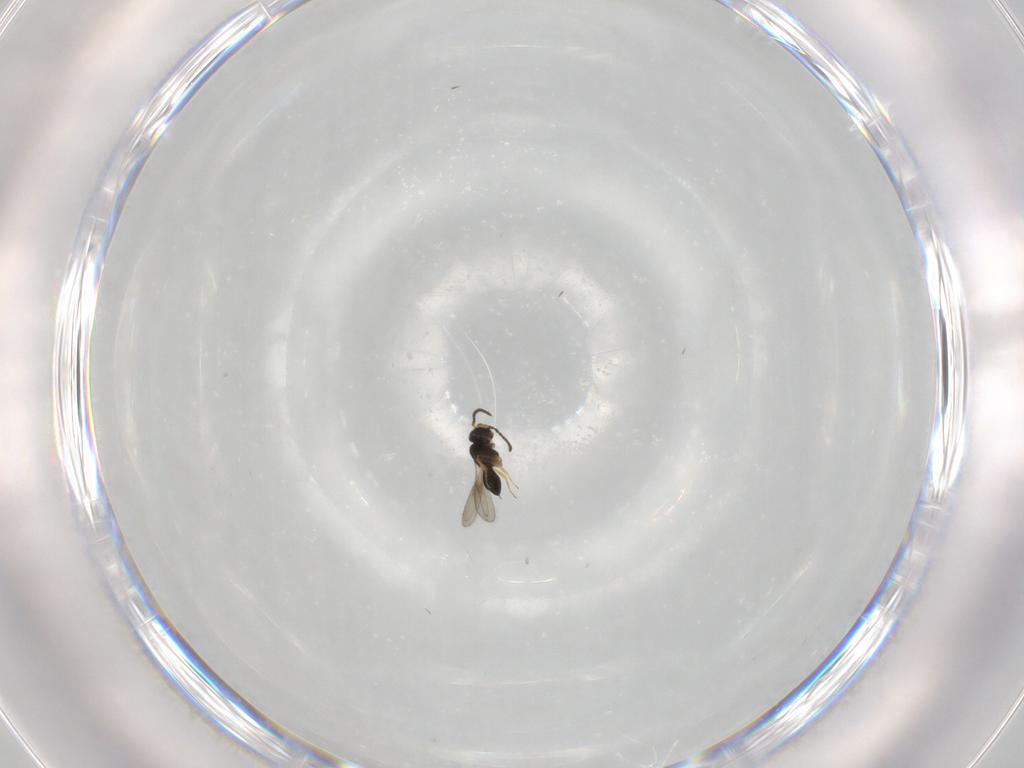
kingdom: Animalia
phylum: Arthropoda
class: Insecta
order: Hymenoptera
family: Scelionidae
